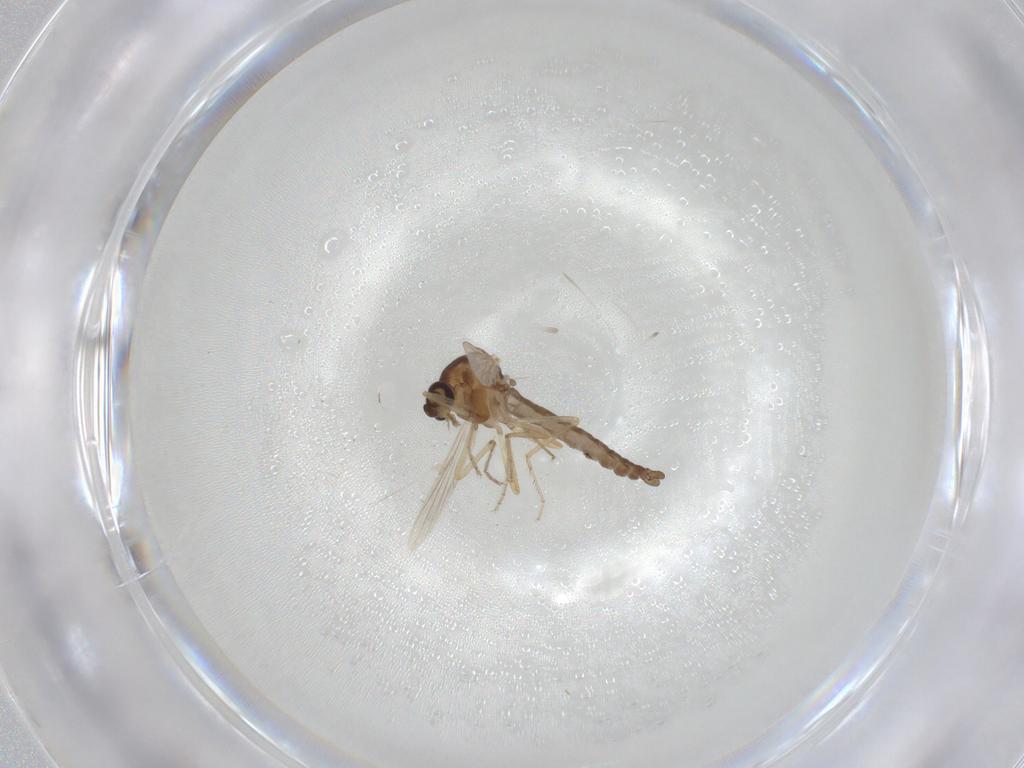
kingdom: Animalia
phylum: Arthropoda
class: Insecta
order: Diptera
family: Ceratopogonidae
